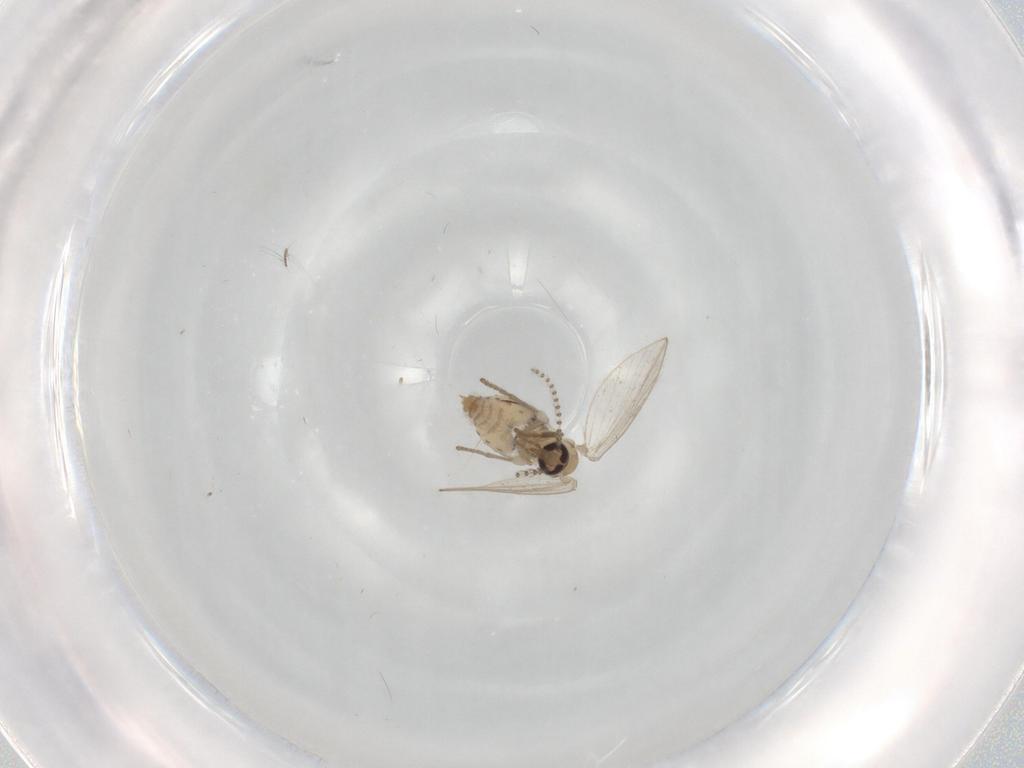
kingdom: Animalia
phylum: Arthropoda
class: Insecta
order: Diptera
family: Psychodidae
